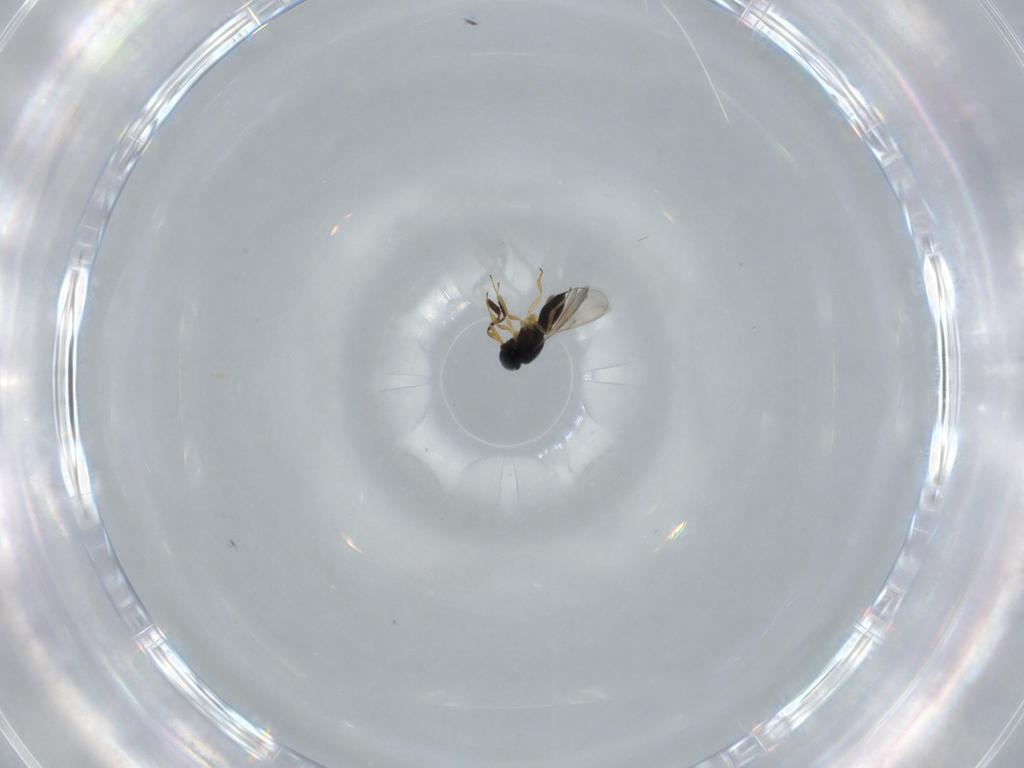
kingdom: Animalia
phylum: Arthropoda
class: Insecta
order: Hymenoptera
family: Scelionidae
